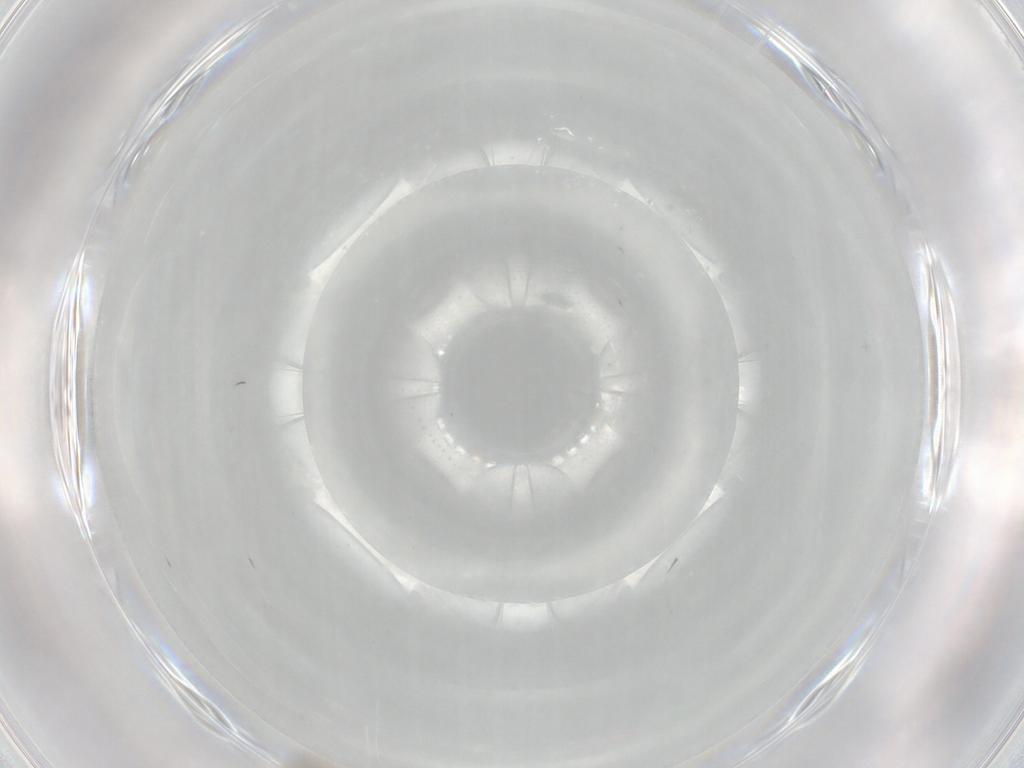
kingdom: Animalia
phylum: Arthropoda
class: Insecta
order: Diptera
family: Cecidomyiidae
